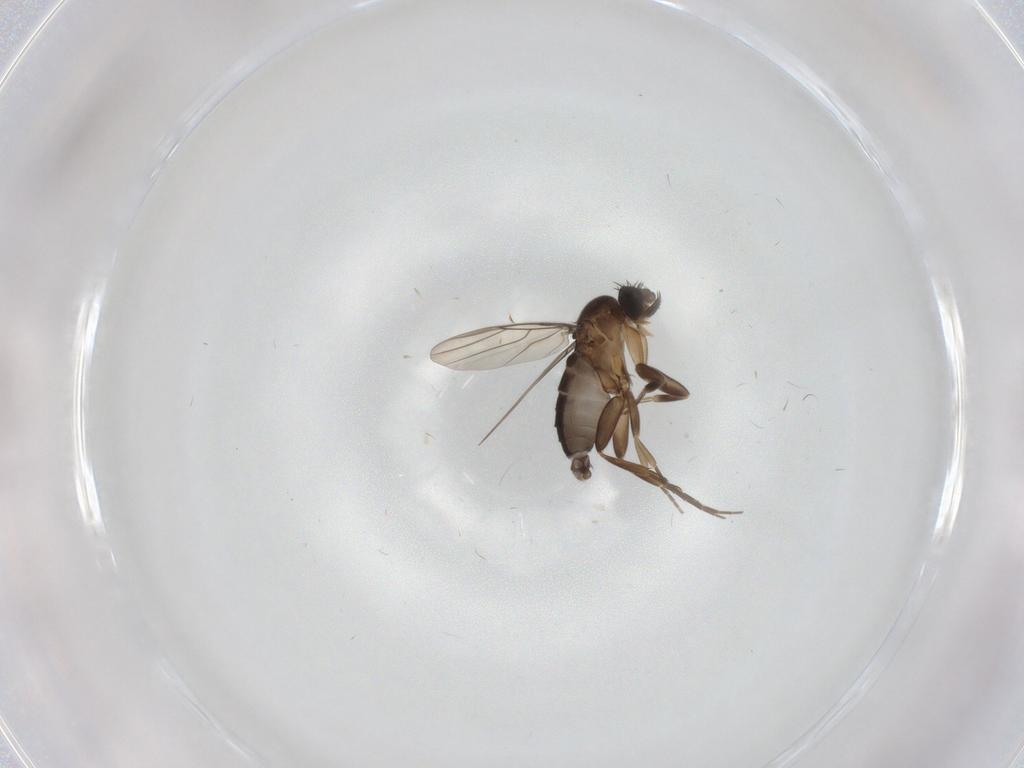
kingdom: Animalia
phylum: Arthropoda
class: Insecta
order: Diptera
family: Phoridae
